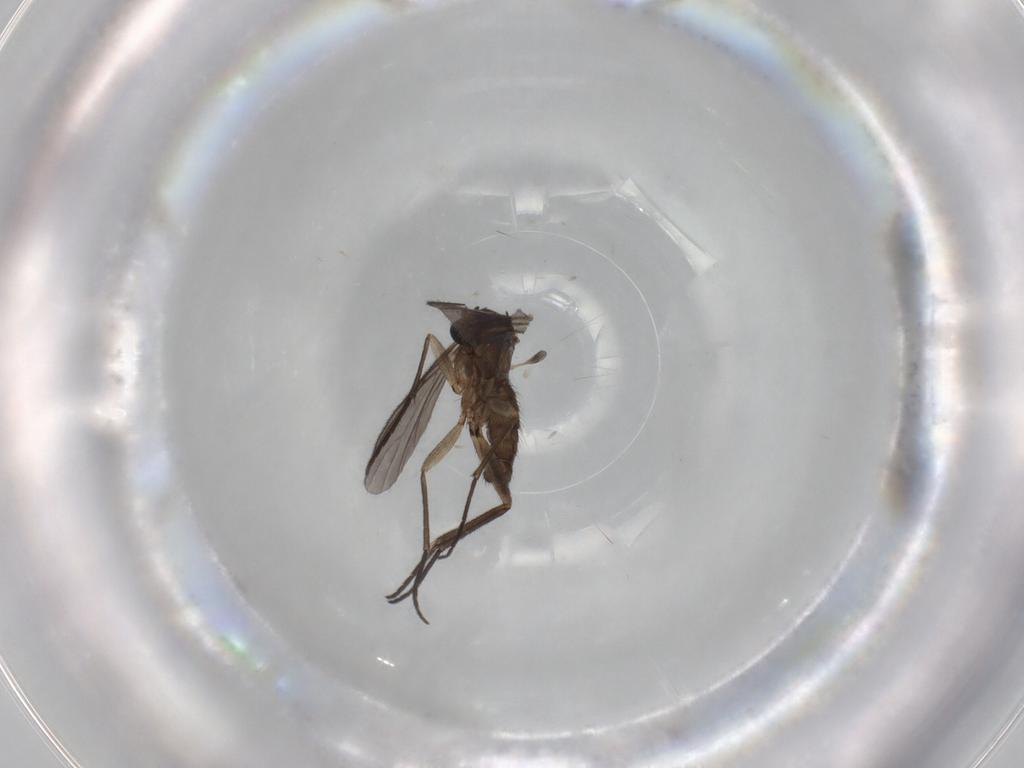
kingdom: Animalia
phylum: Arthropoda
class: Insecta
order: Diptera
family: Sciaridae
